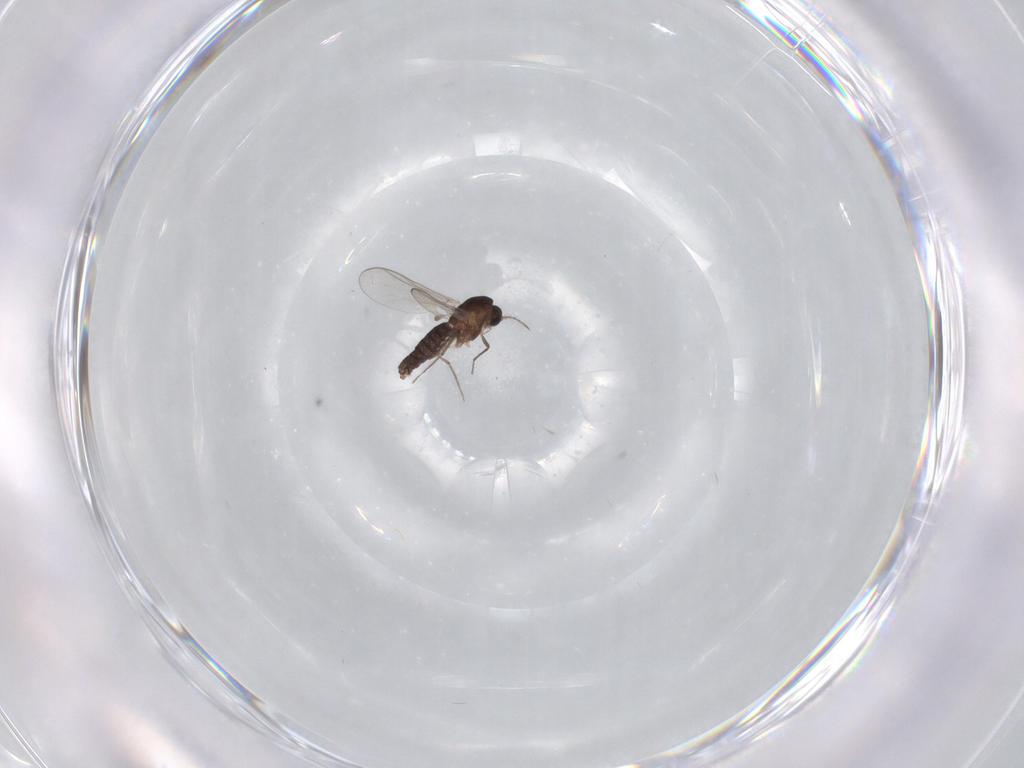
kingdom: Animalia
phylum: Arthropoda
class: Insecta
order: Diptera
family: Chironomidae
